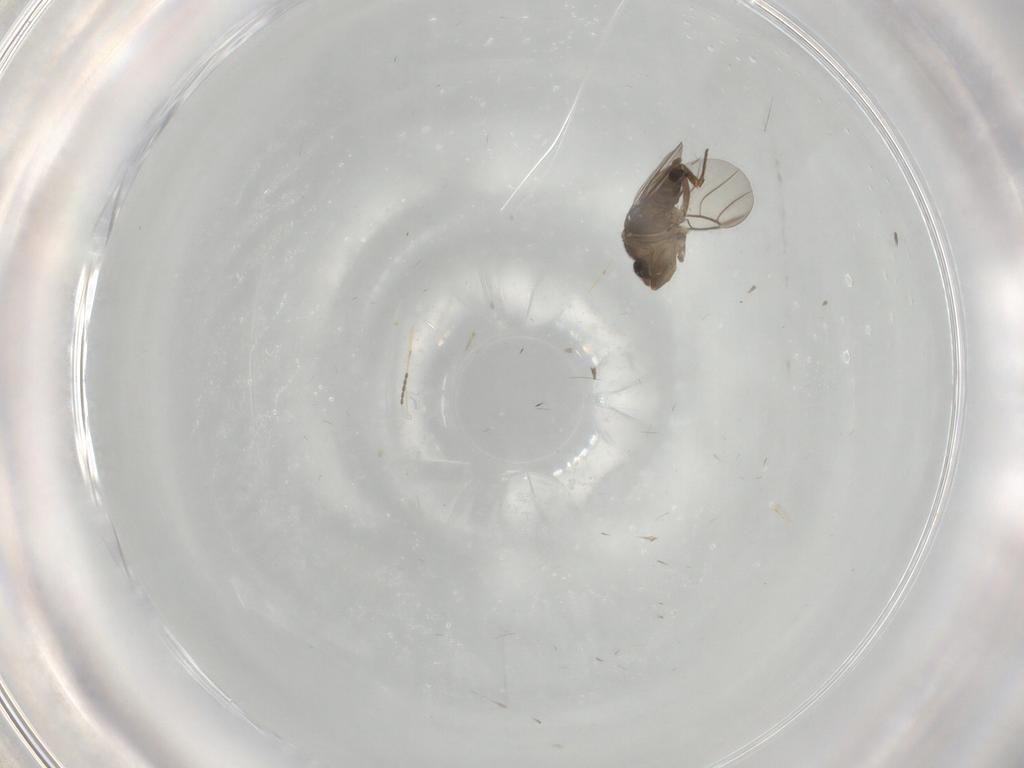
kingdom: Animalia
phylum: Arthropoda
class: Insecta
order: Diptera
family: Phoridae
